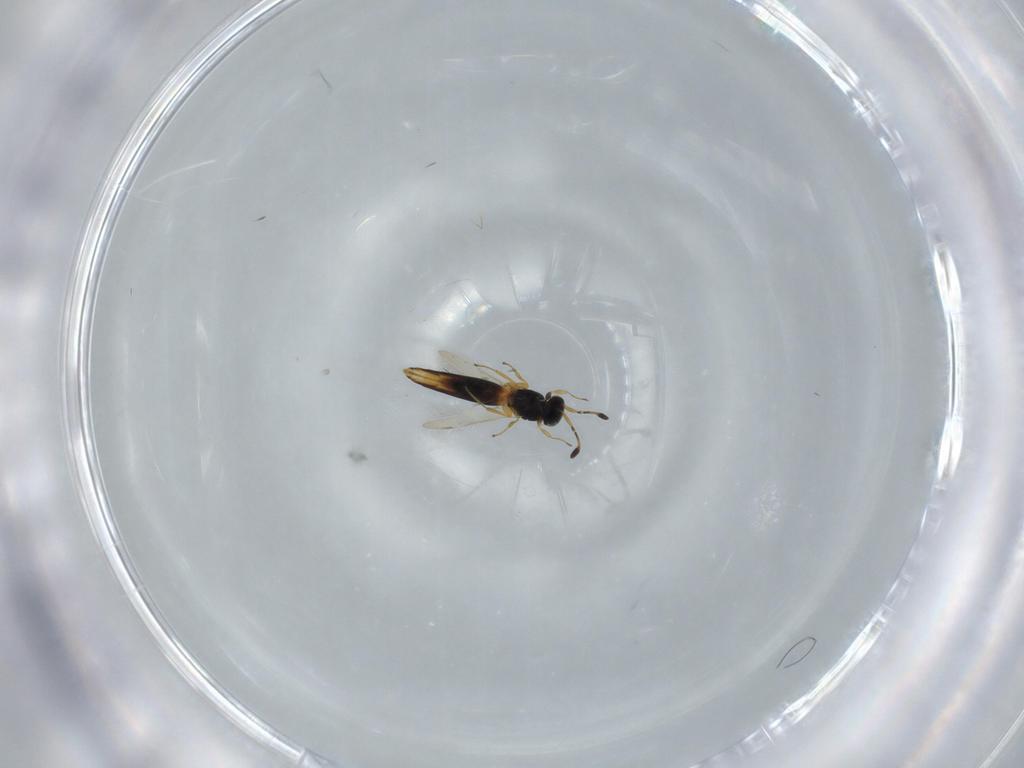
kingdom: Animalia
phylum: Arthropoda
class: Insecta
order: Hymenoptera
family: Scelionidae
